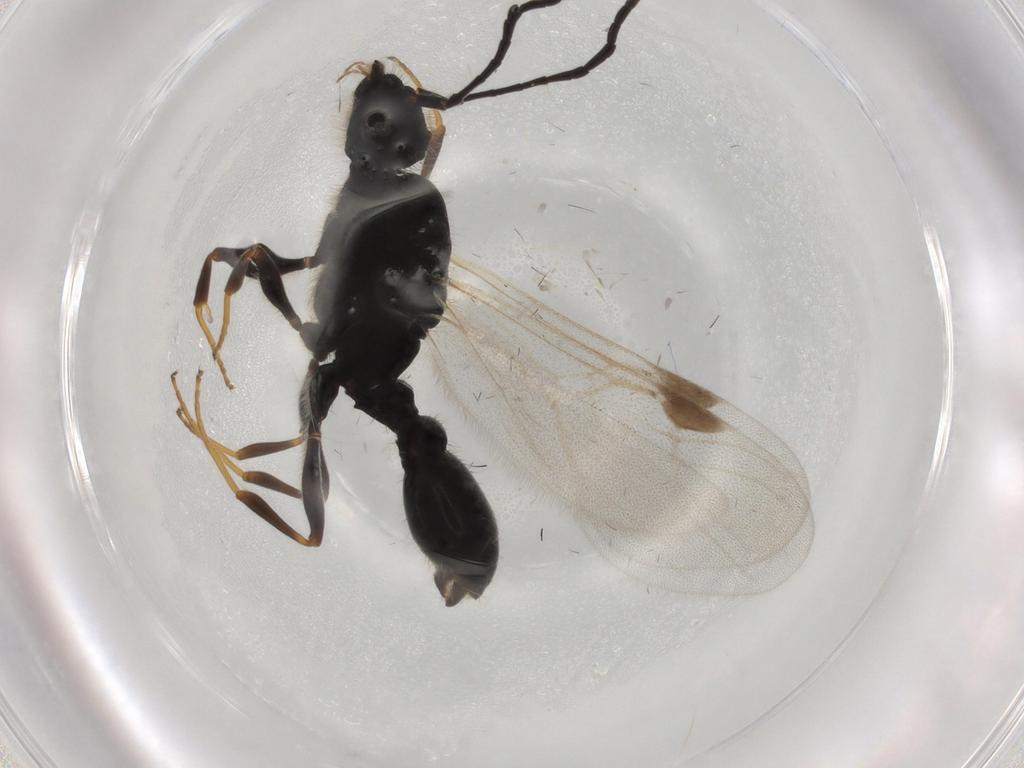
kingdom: Animalia
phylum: Arthropoda
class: Insecta
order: Hymenoptera
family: Formicidae
